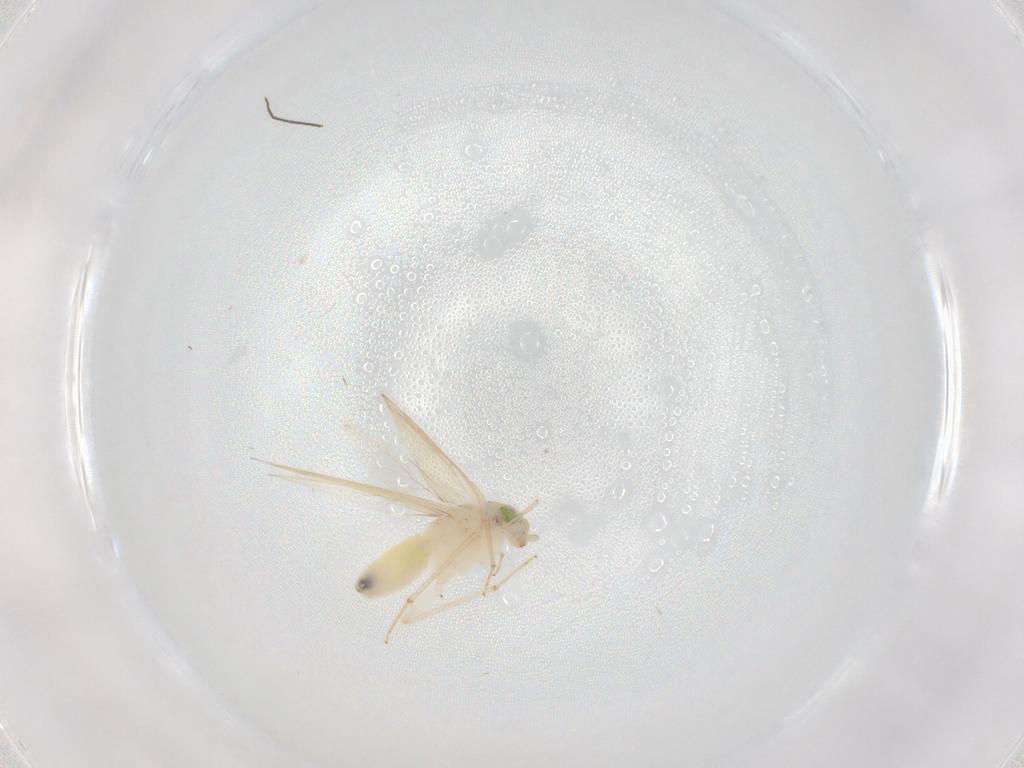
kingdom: Animalia
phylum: Arthropoda
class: Insecta
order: Psocodea
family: Lepidopsocidae
